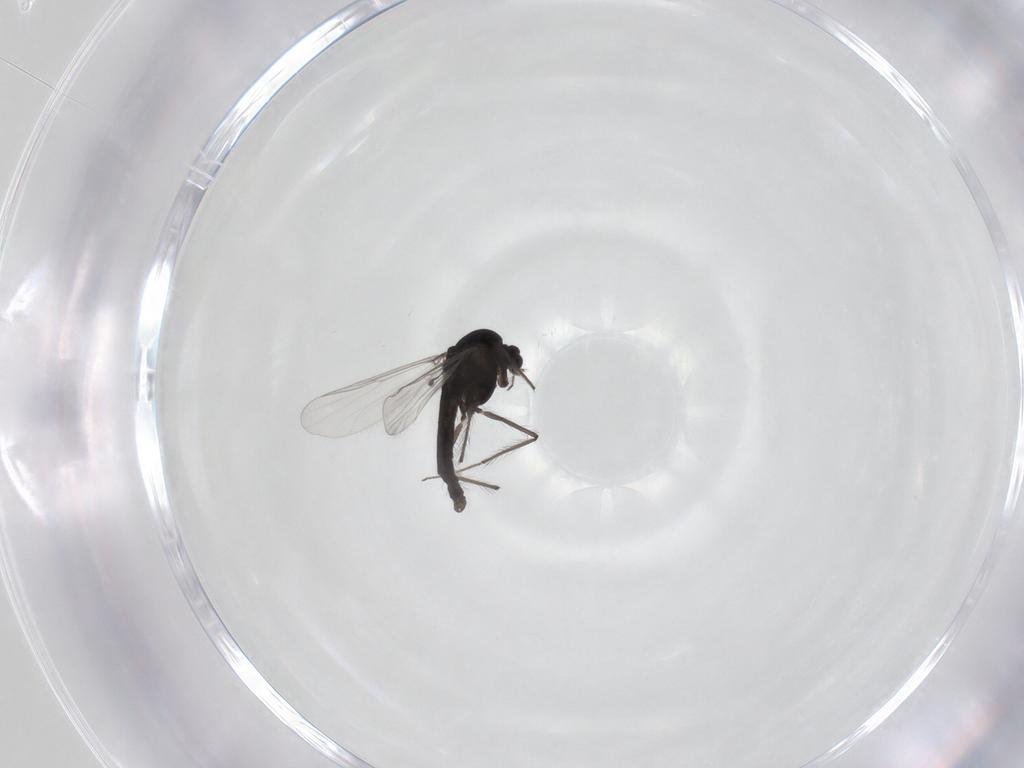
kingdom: Animalia
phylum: Arthropoda
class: Insecta
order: Diptera
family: Chironomidae
